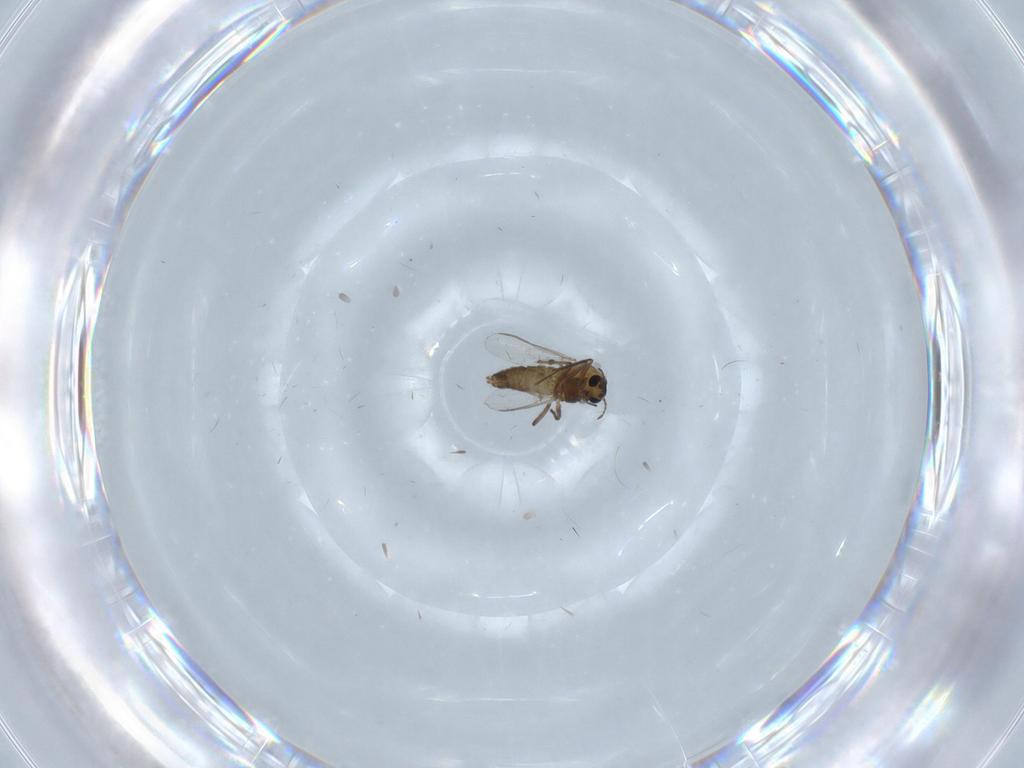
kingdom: Animalia
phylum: Arthropoda
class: Insecta
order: Diptera
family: Chironomidae
